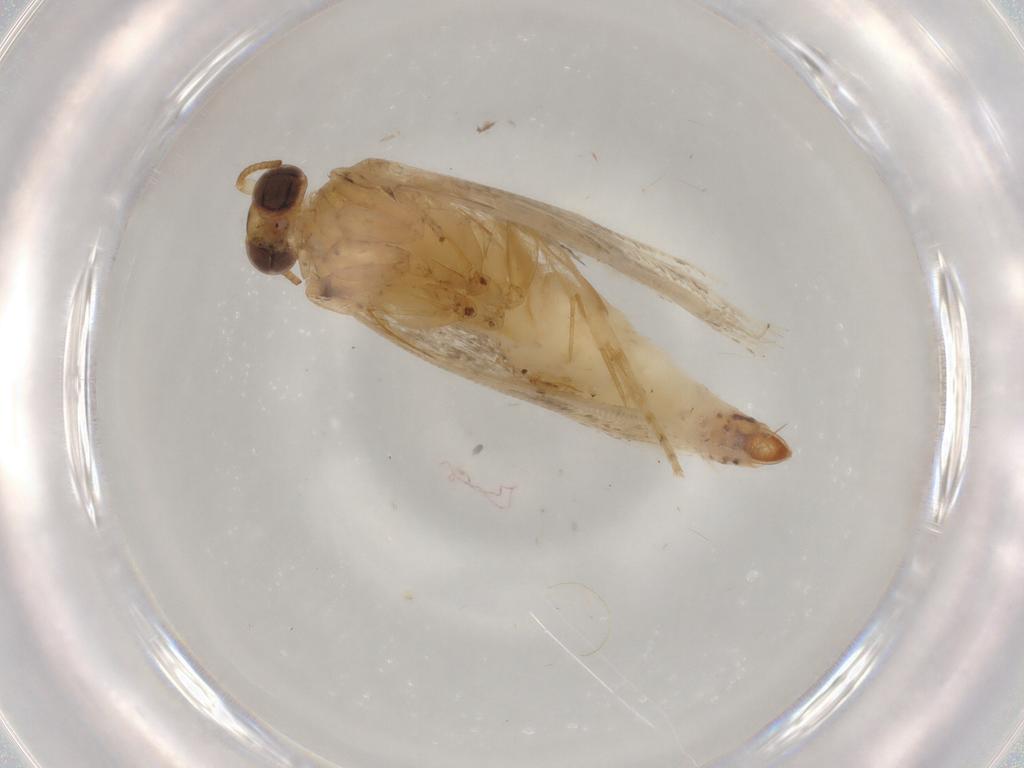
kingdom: Animalia
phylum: Arthropoda
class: Insecta
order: Lepidoptera
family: Tortricidae
